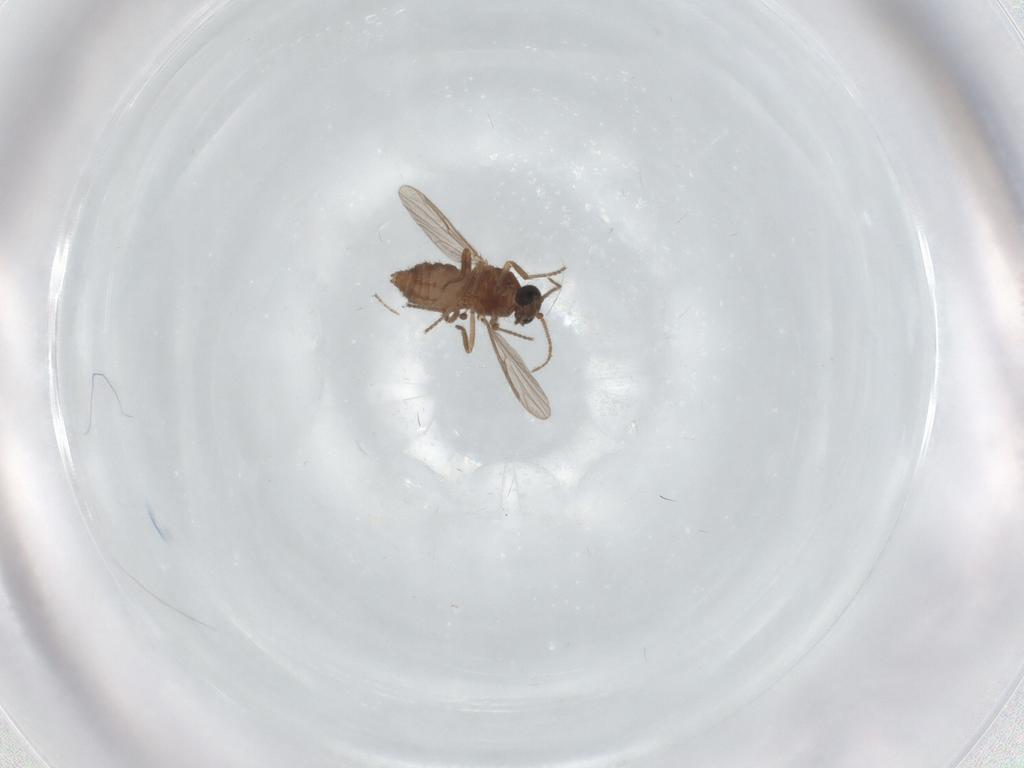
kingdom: Animalia
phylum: Arthropoda
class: Insecta
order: Diptera
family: Ceratopogonidae
